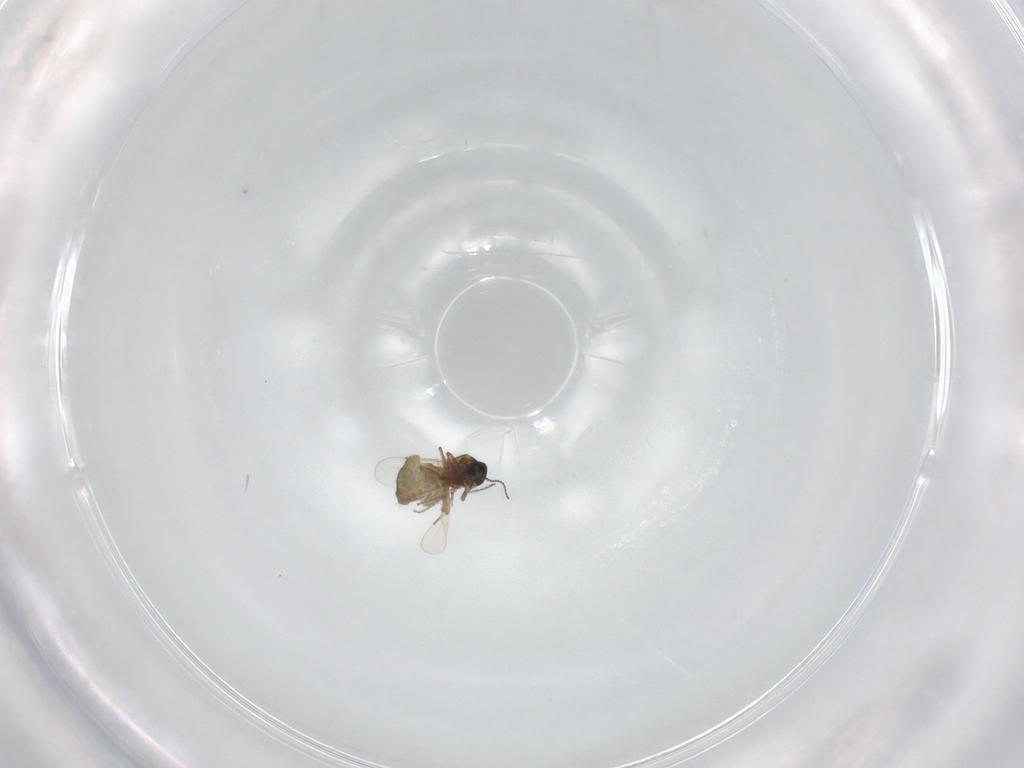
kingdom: Animalia
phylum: Arthropoda
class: Insecta
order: Diptera
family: Ceratopogonidae
